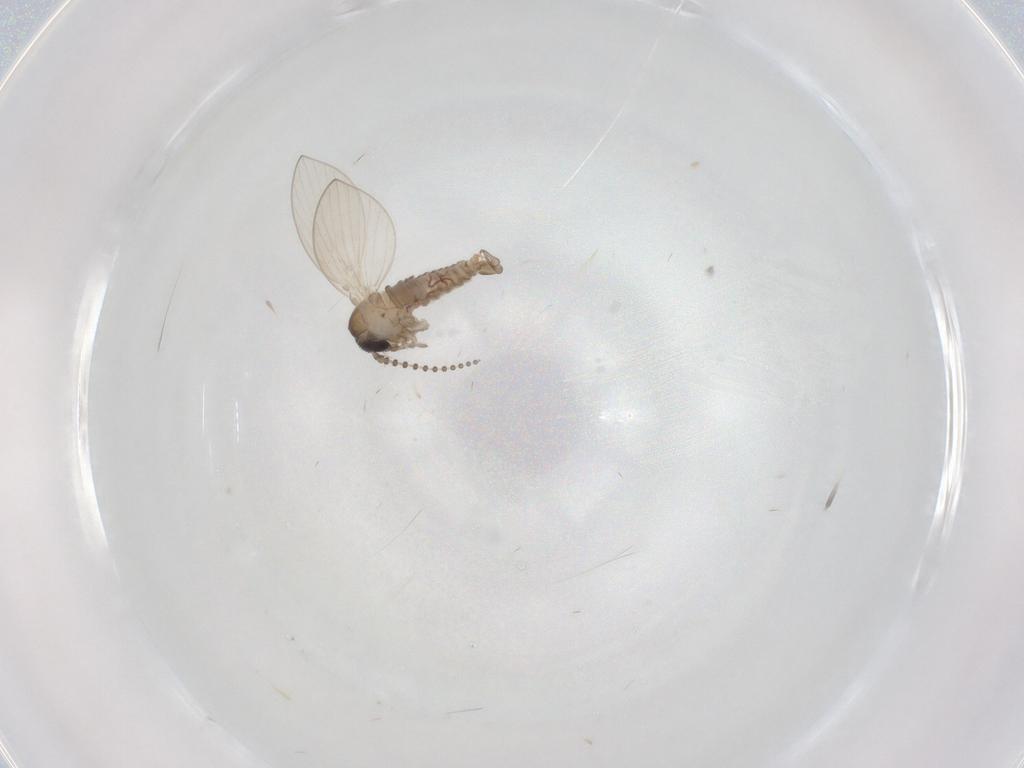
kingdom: Animalia
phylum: Arthropoda
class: Insecta
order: Diptera
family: Psychodidae
